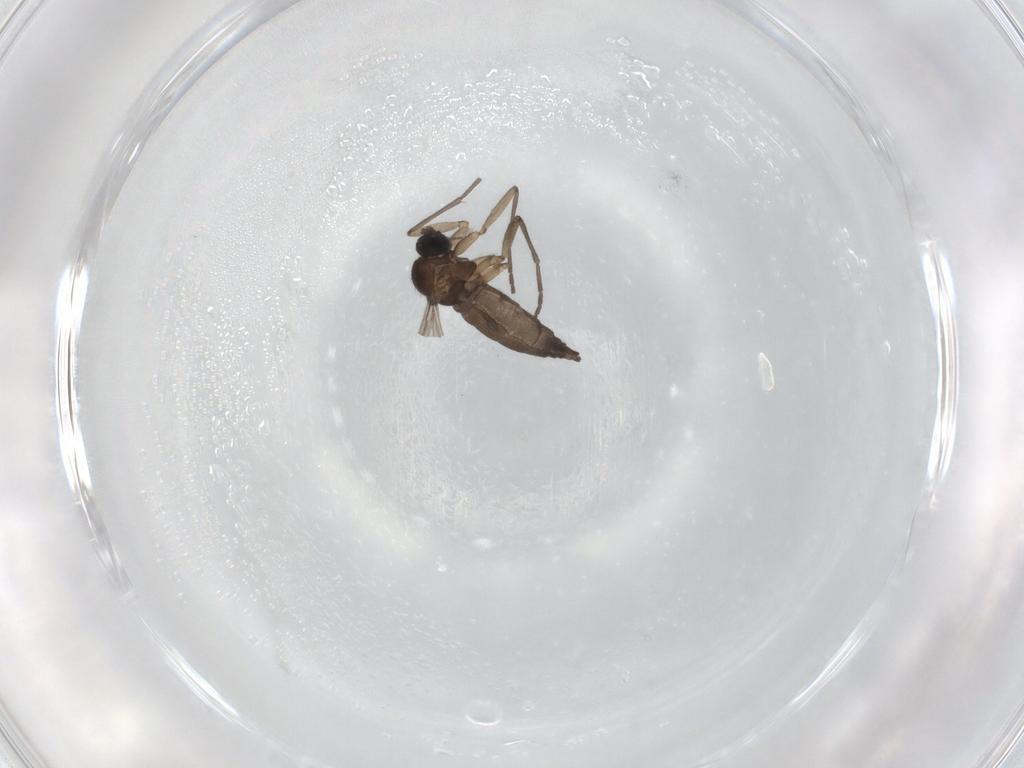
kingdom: Animalia
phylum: Arthropoda
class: Insecta
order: Diptera
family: Sciaridae
